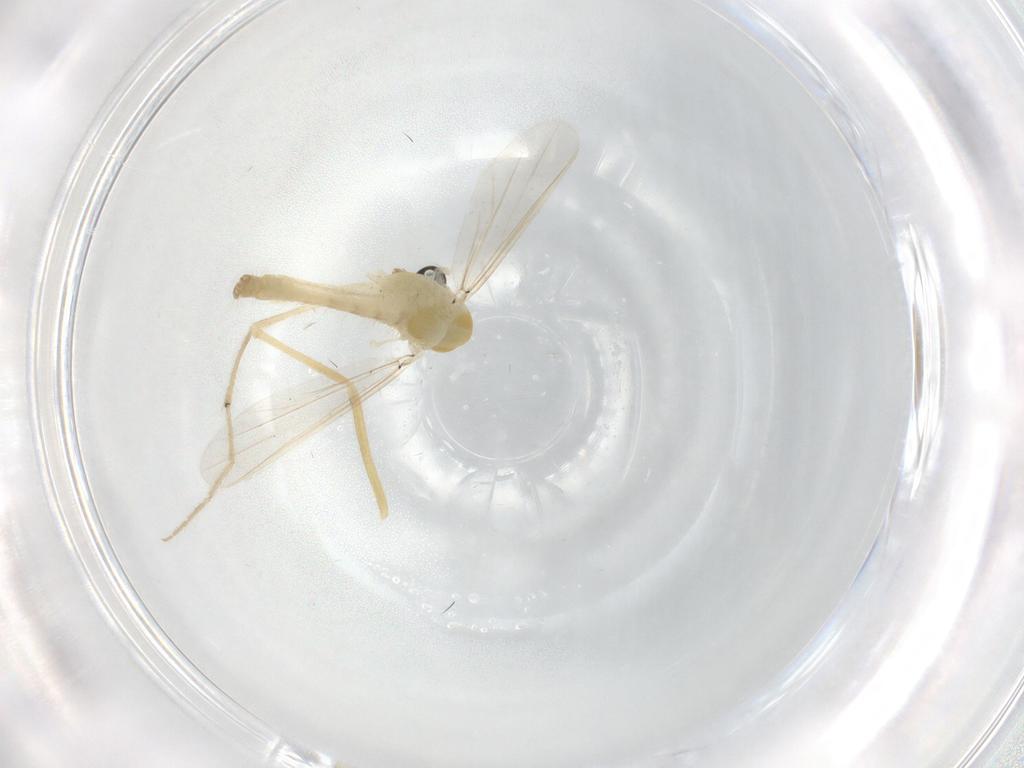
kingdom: Animalia
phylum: Arthropoda
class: Insecta
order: Diptera
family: Chironomidae
